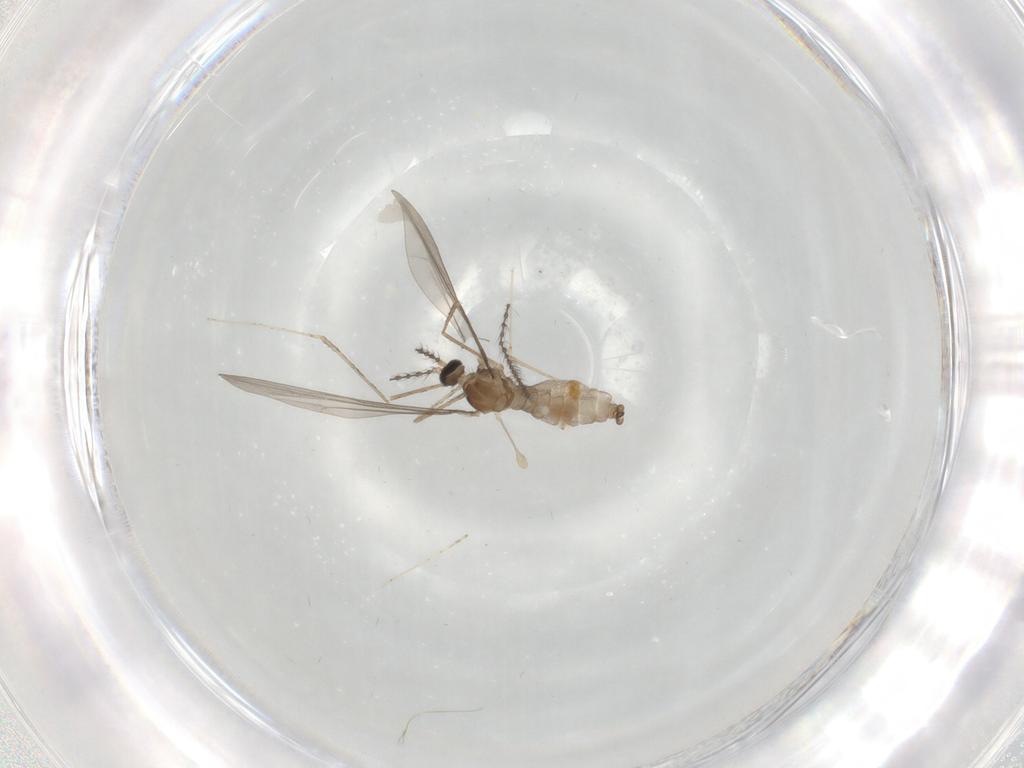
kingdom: Animalia
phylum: Arthropoda
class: Insecta
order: Diptera
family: Cecidomyiidae
